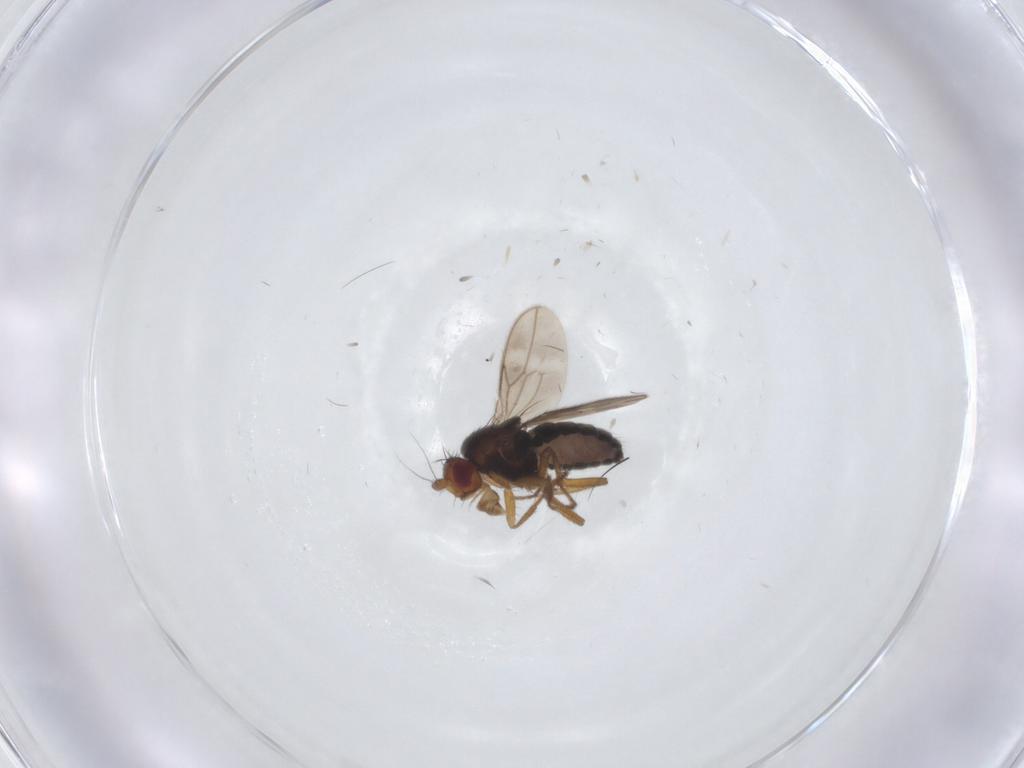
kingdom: Animalia
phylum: Arthropoda
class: Insecta
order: Diptera
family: Sphaeroceridae
